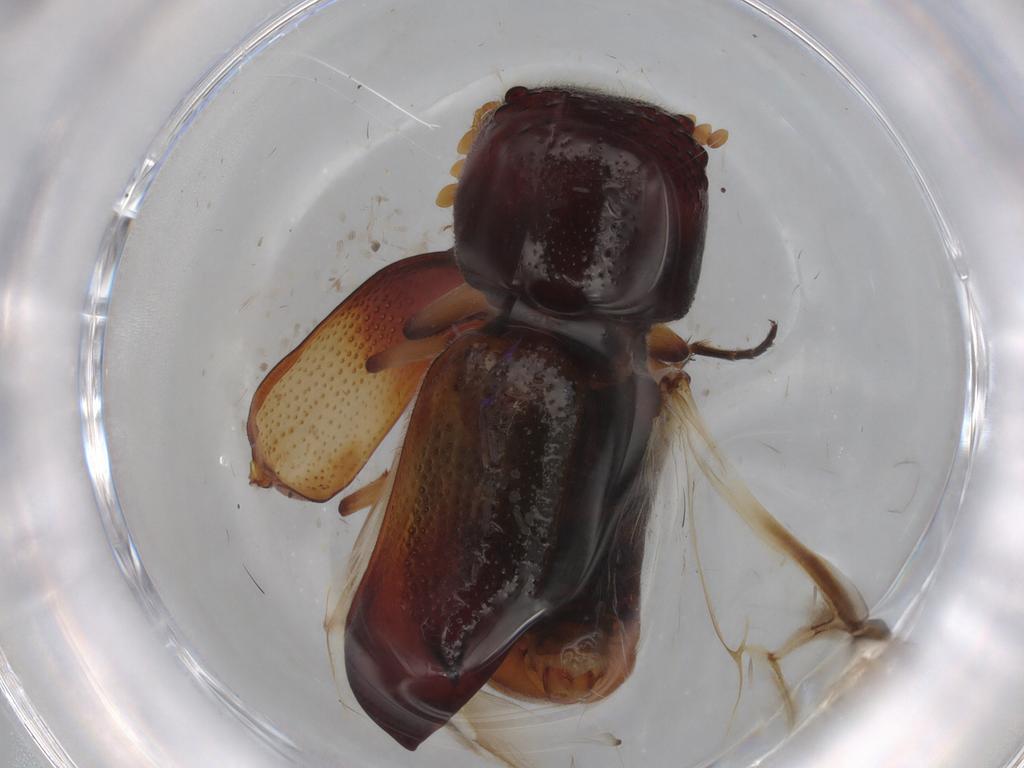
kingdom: Animalia
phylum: Arthropoda
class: Insecta
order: Coleoptera
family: Bostrichidae
